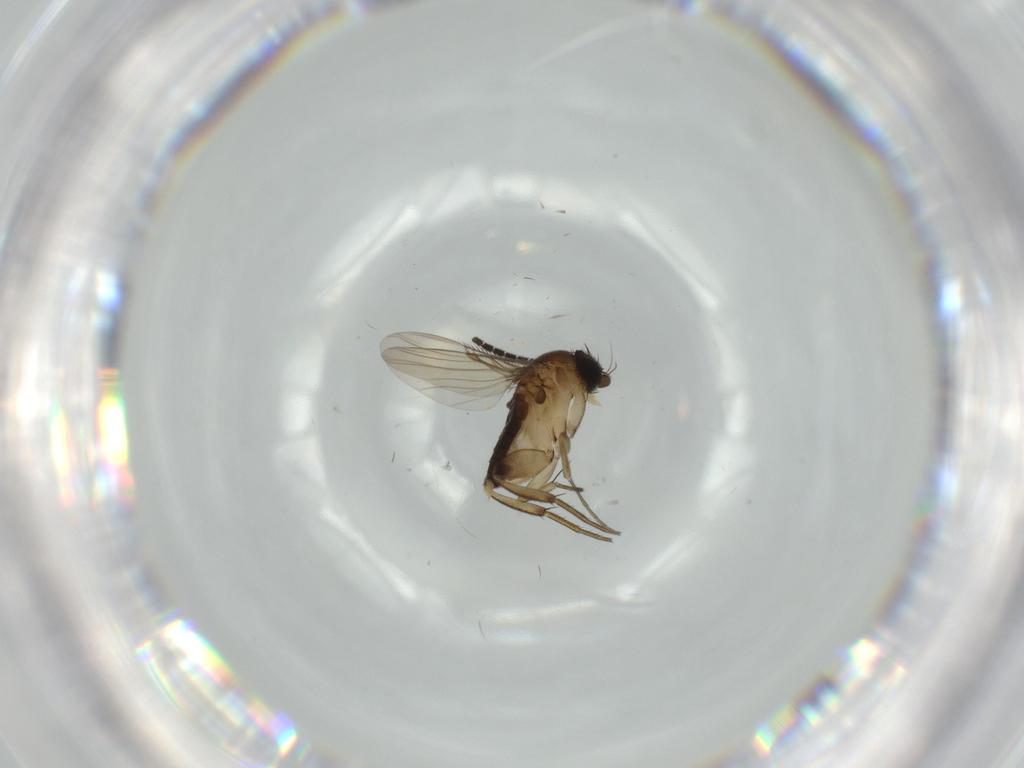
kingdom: Animalia
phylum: Arthropoda
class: Insecta
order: Diptera
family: Phoridae
